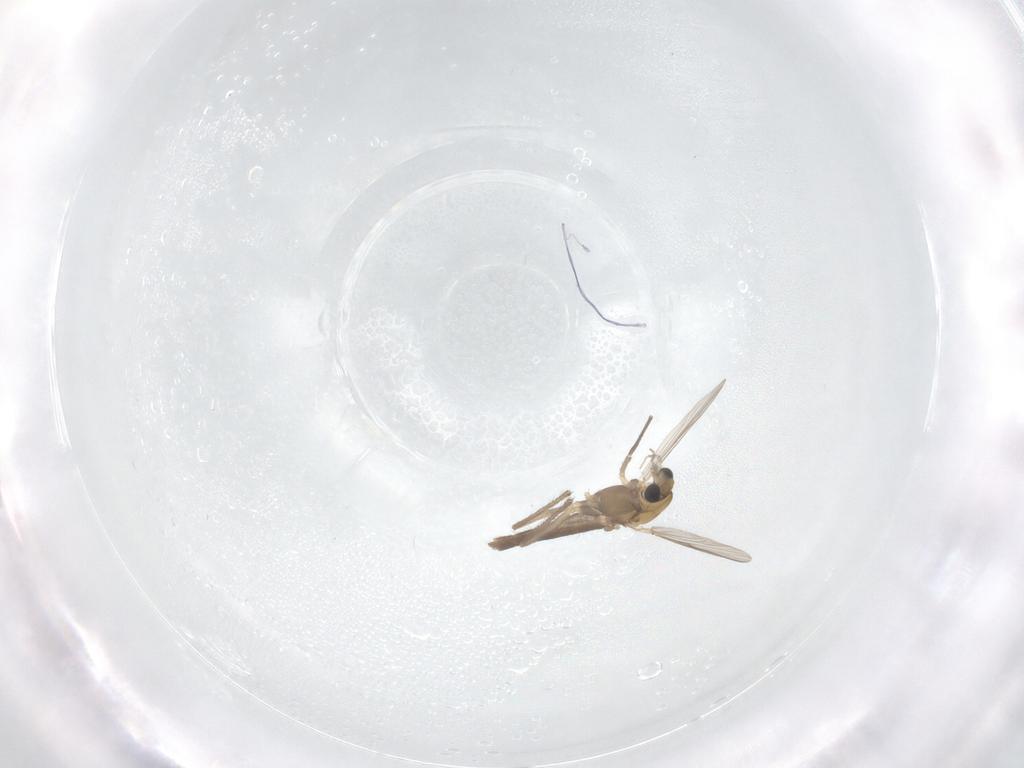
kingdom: Animalia
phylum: Arthropoda
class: Insecta
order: Diptera
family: Chironomidae
